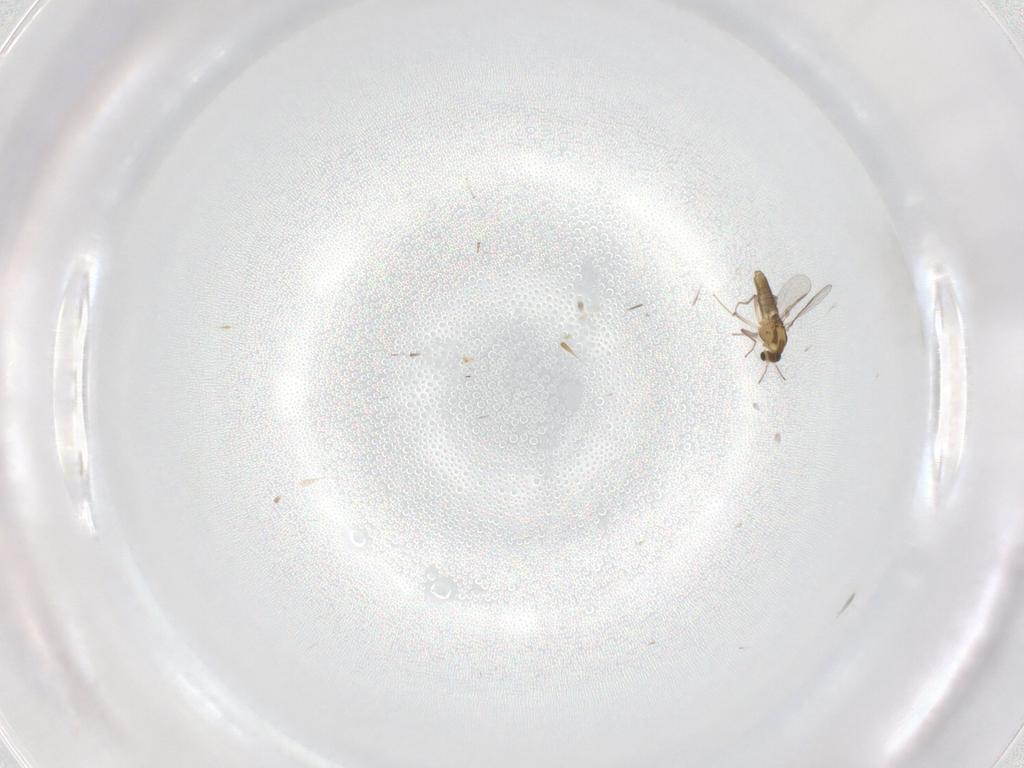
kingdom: Animalia
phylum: Arthropoda
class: Insecta
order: Diptera
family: Chironomidae
